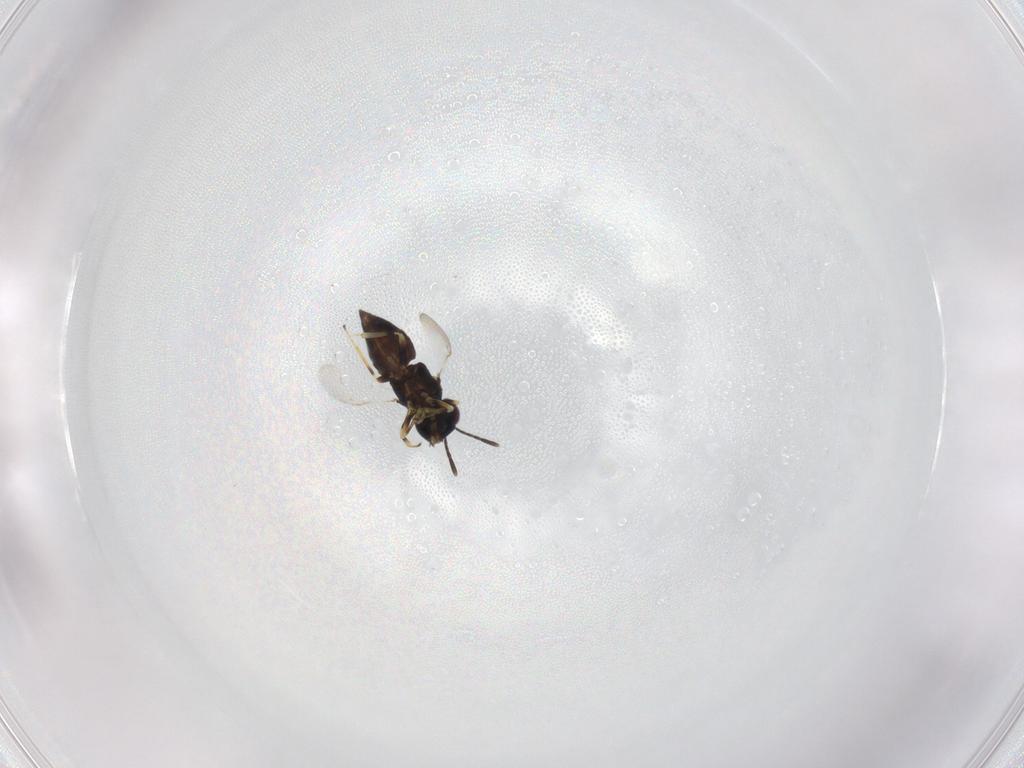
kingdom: Animalia
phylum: Arthropoda
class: Insecta
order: Hymenoptera
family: Encyrtidae
